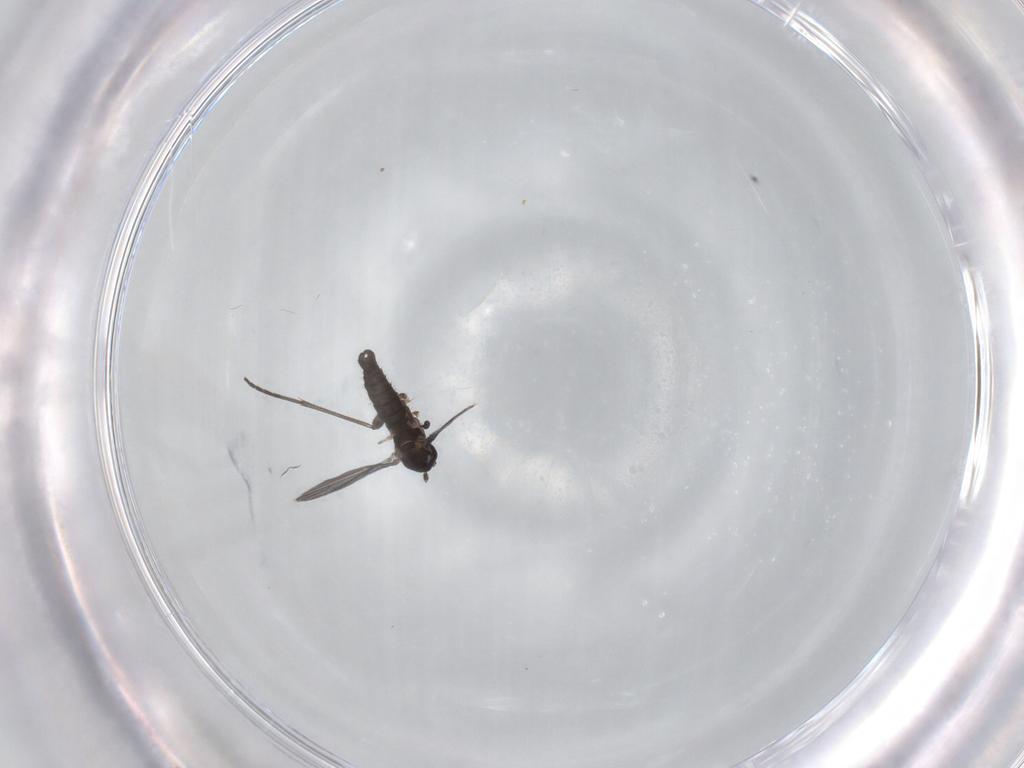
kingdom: Animalia
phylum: Arthropoda
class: Insecta
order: Diptera
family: Sciaridae
